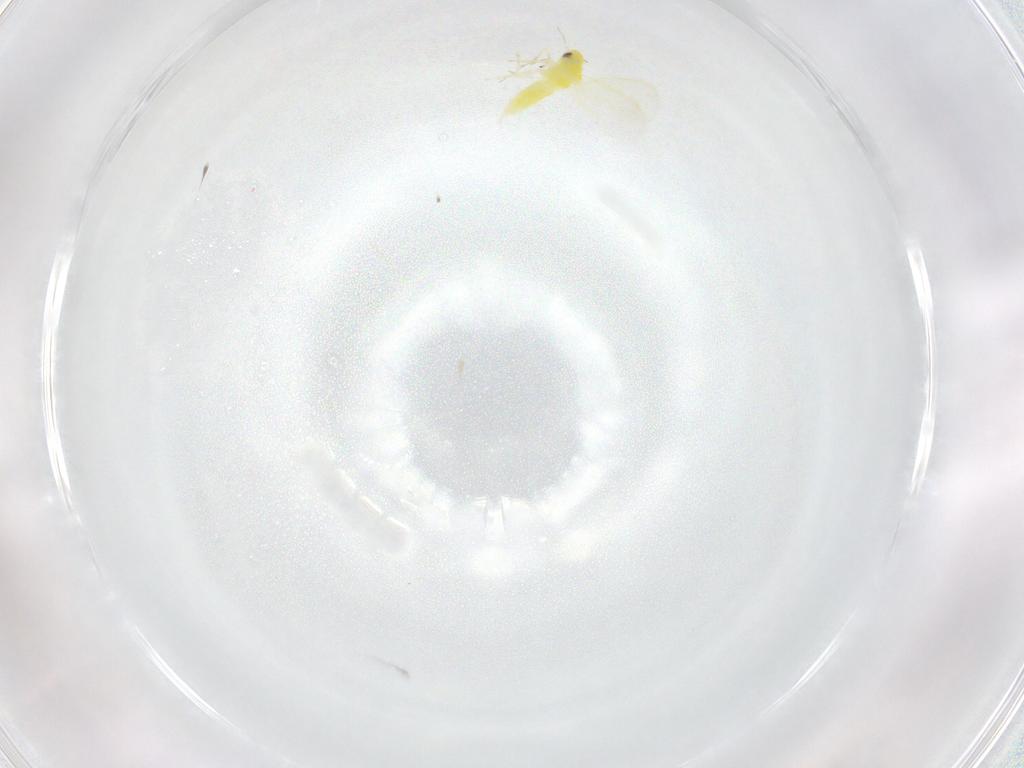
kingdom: Animalia
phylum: Arthropoda
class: Insecta
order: Hemiptera
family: Aleyrodidae
